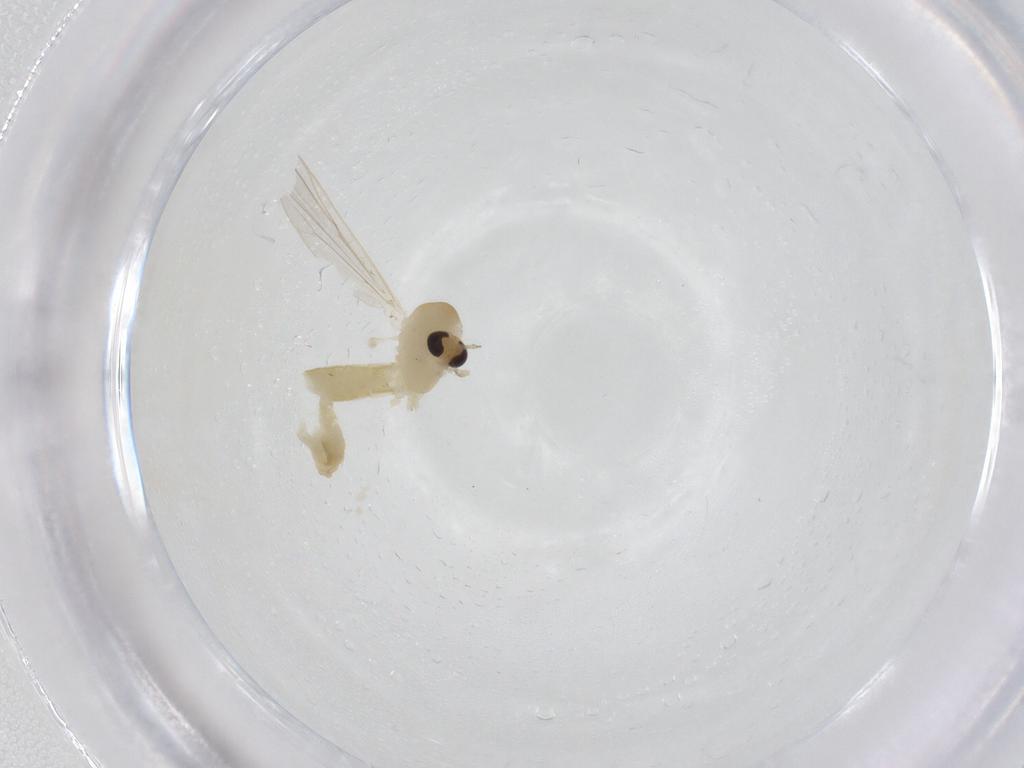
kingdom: Animalia
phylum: Arthropoda
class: Insecta
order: Diptera
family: Chironomidae
